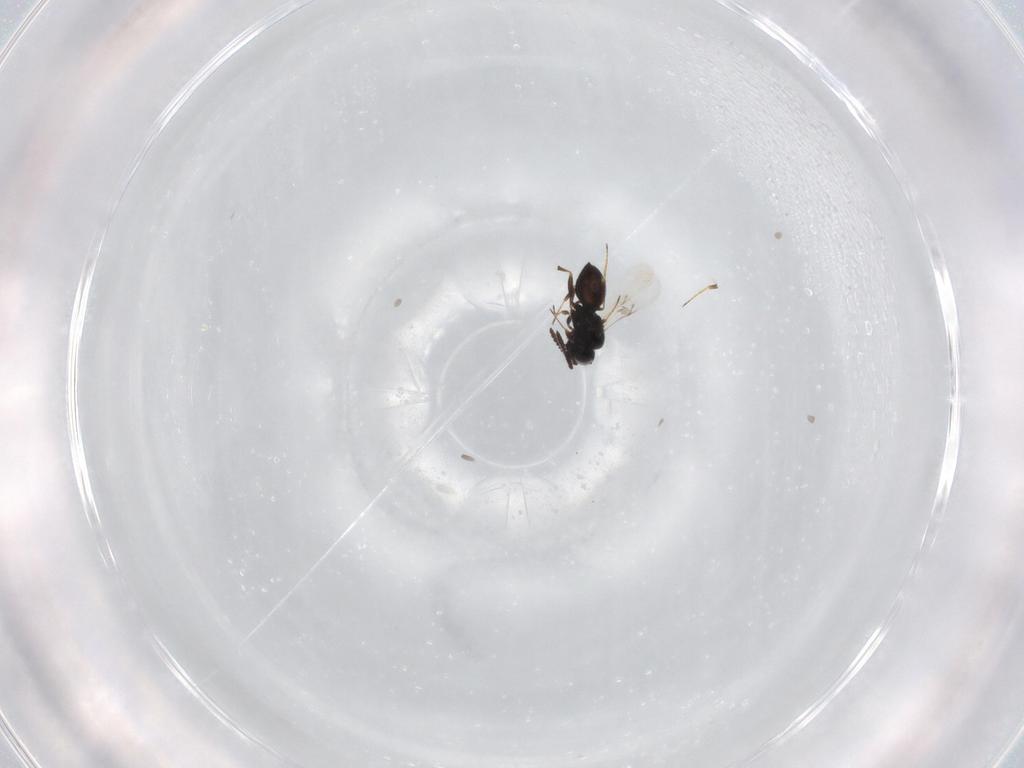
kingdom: Animalia
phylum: Arthropoda
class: Insecta
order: Hymenoptera
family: Scelionidae
